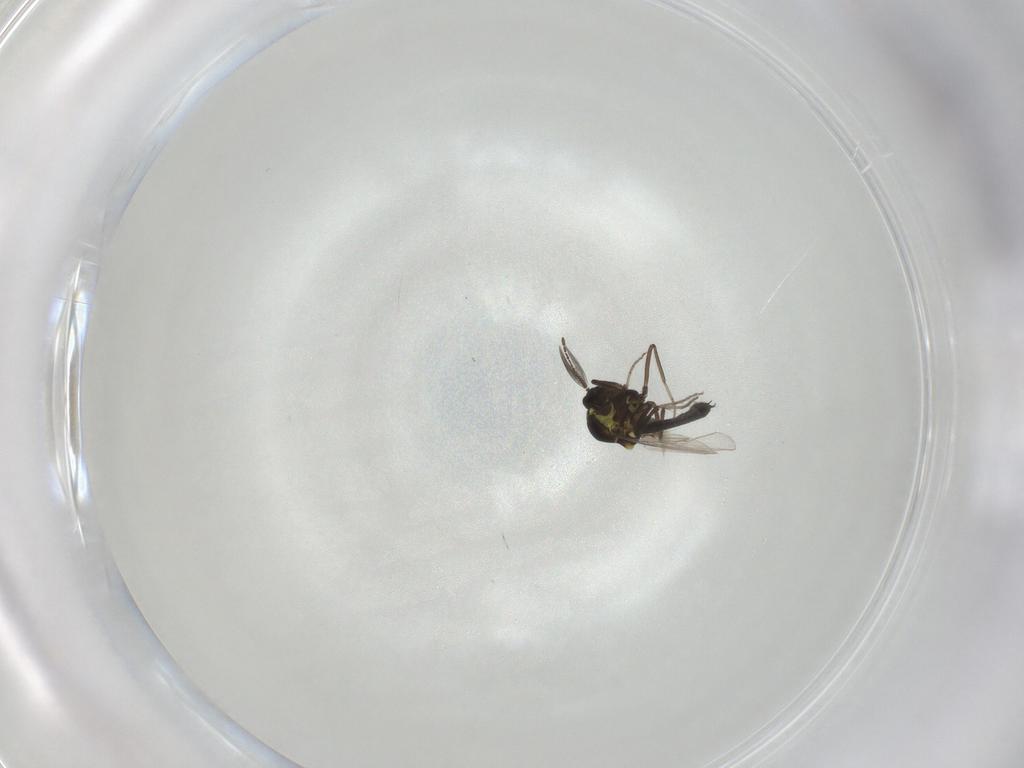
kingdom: Animalia
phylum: Arthropoda
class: Insecta
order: Diptera
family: Ceratopogonidae
